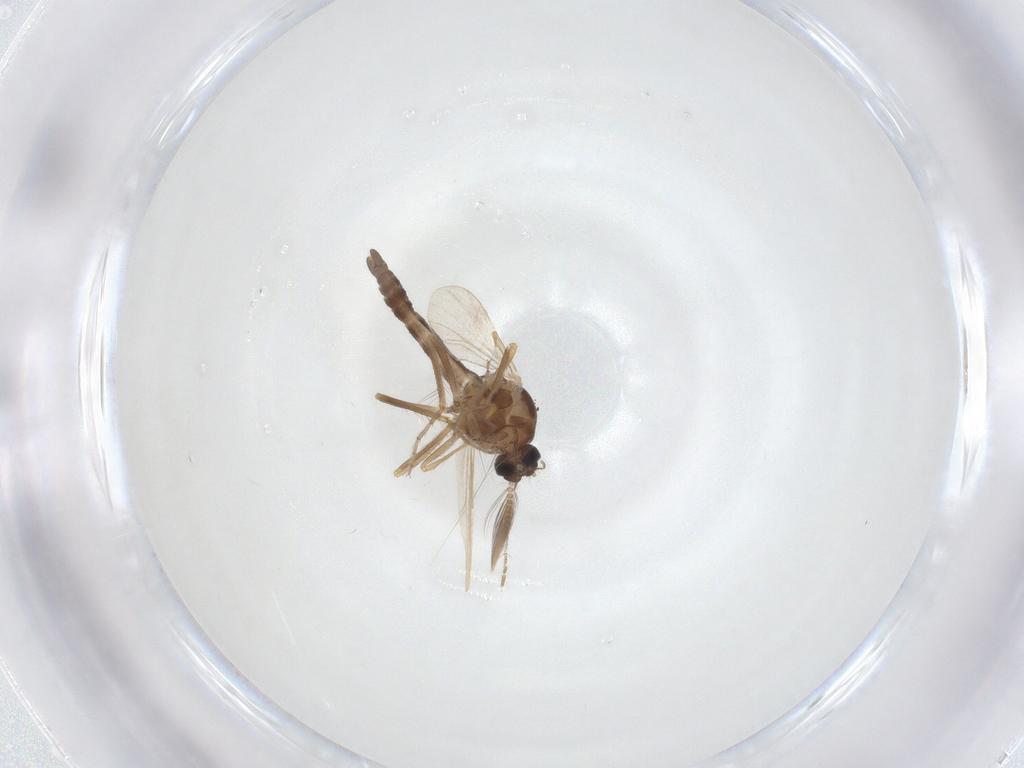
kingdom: Animalia
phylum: Arthropoda
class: Insecta
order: Diptera
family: Ceratopogonidae
